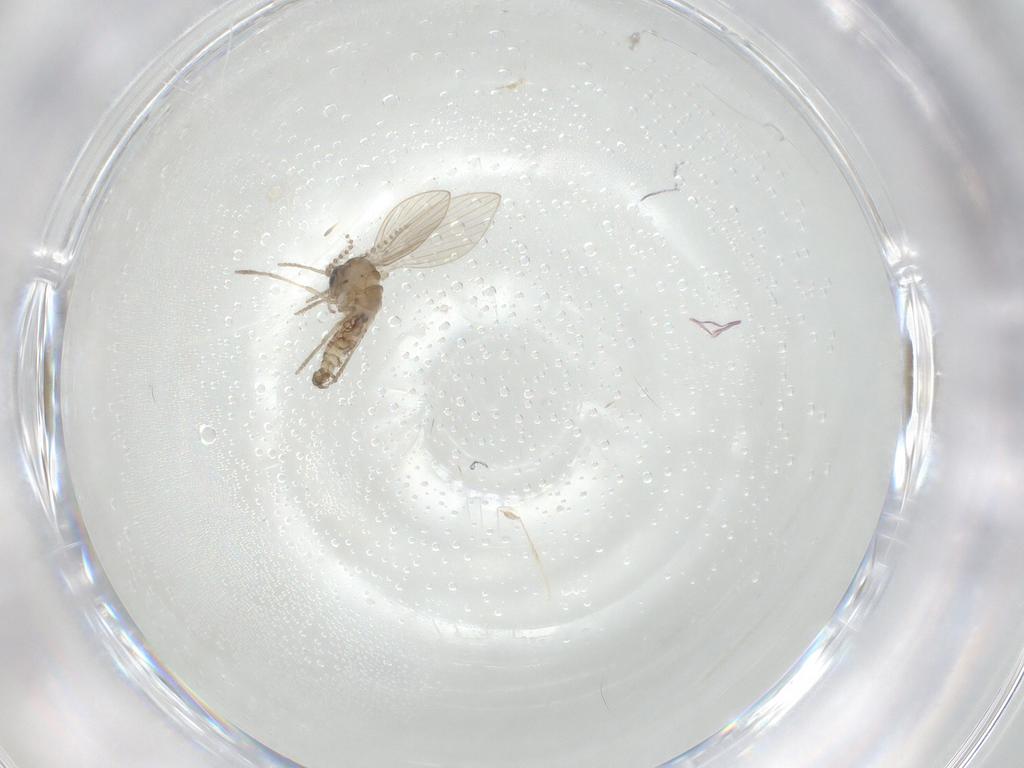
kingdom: Animalia
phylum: Arthropoda
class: Insecta
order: Diptera
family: Psychodidae
